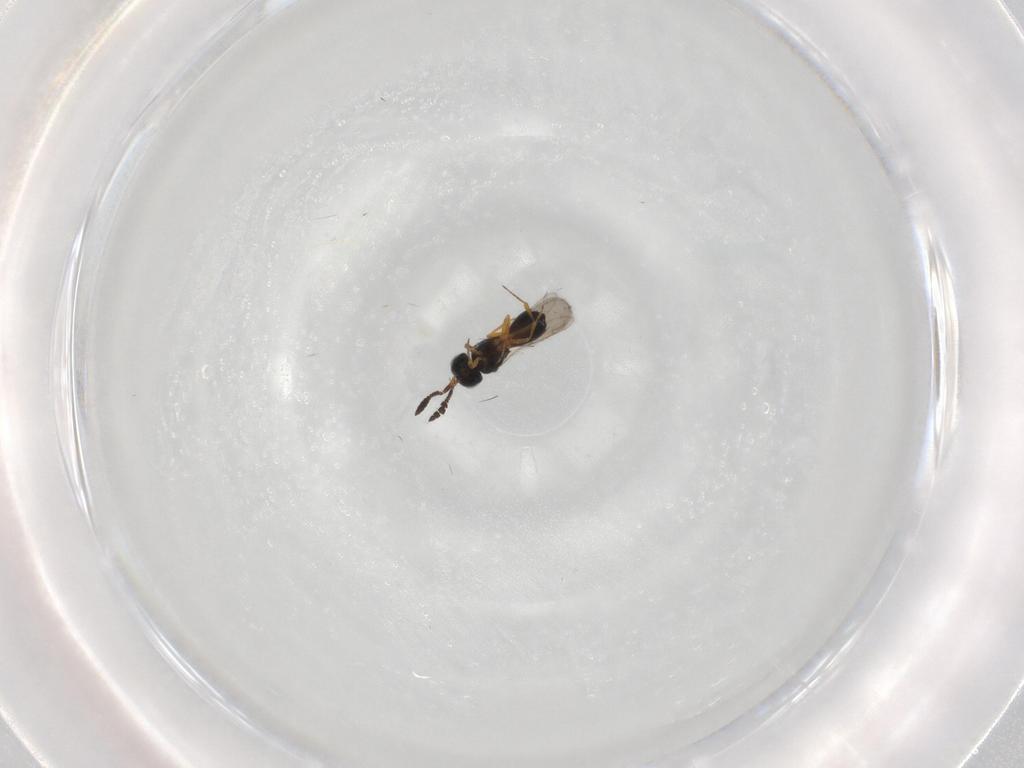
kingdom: Animalia
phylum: Arthropoda
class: Insecta
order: Hymenoptera
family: Scelionidae
